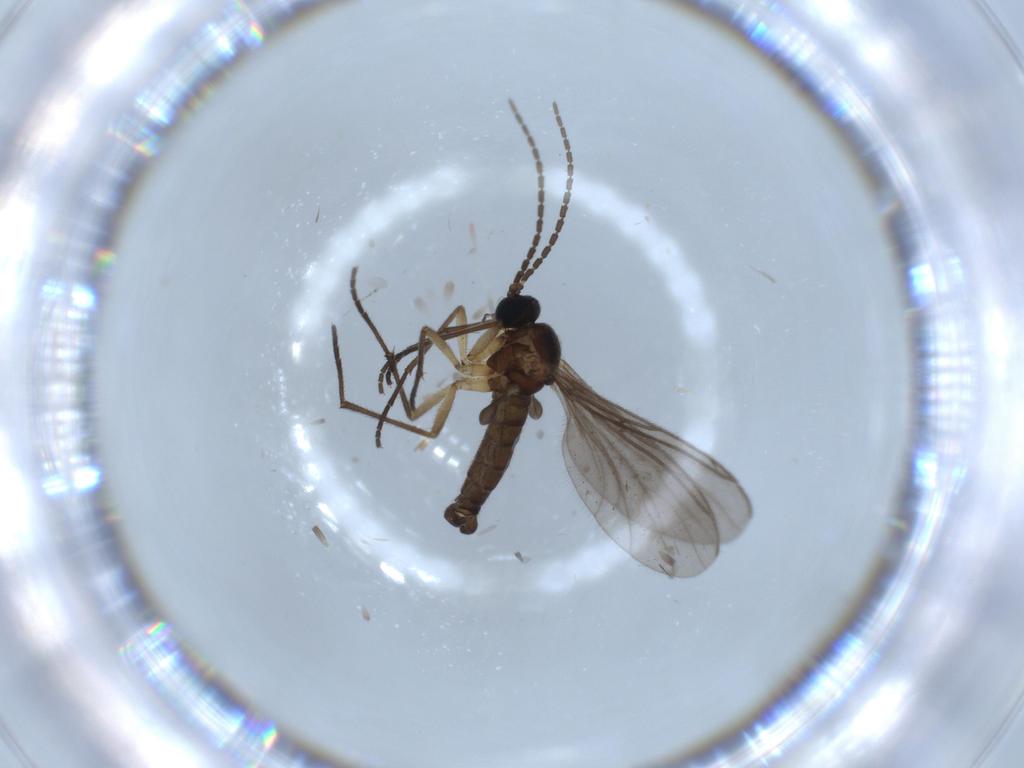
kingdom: Animalia
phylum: Arthropoda
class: Insecta
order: Diptera
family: Sciaridae
